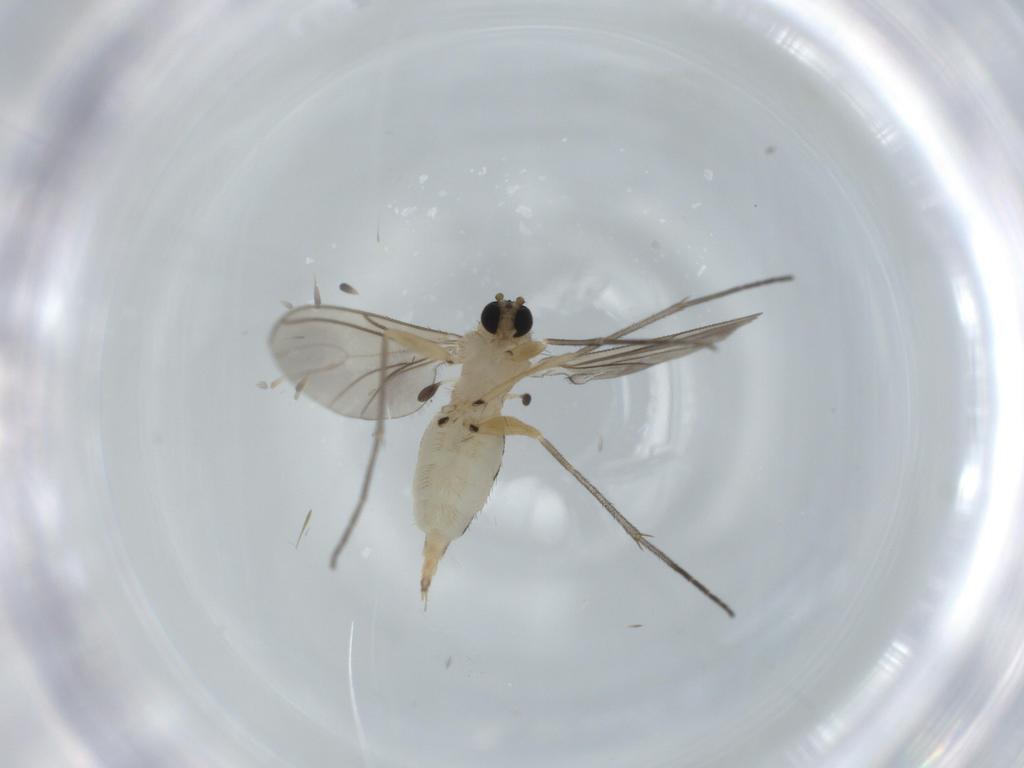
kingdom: Animalia
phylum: Arthropoda
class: Insecta
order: Diptera
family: Sciaridae
